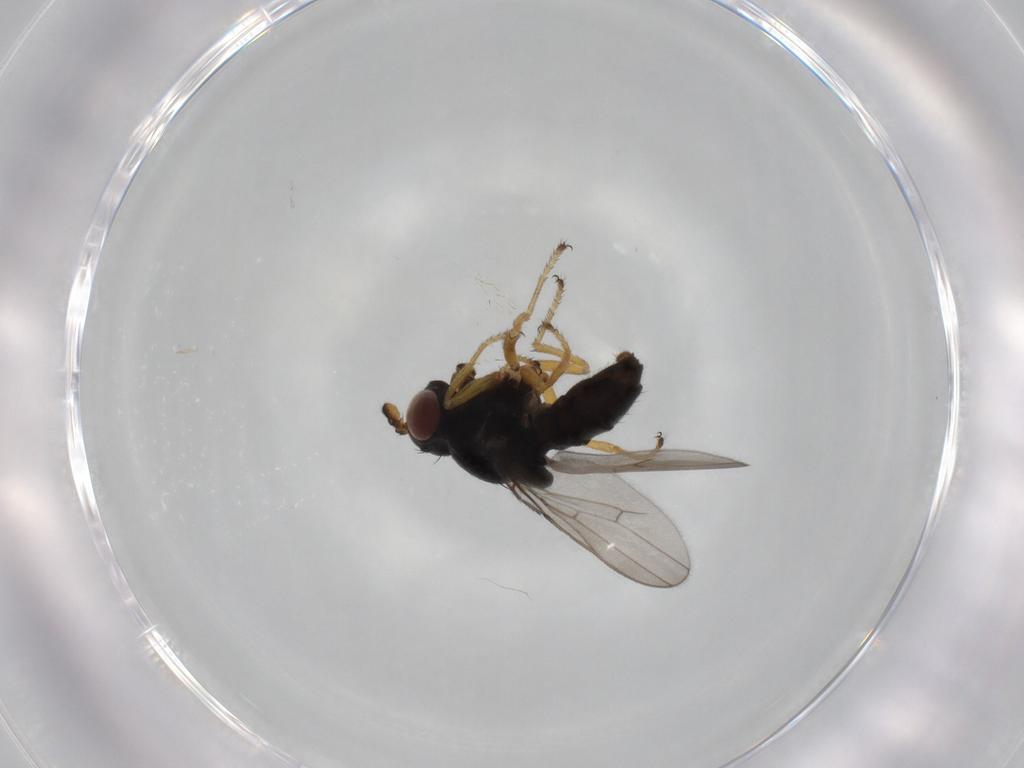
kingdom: Animalia
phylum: Arthropoda
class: Insecta
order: Diptera
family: Ephydridae
